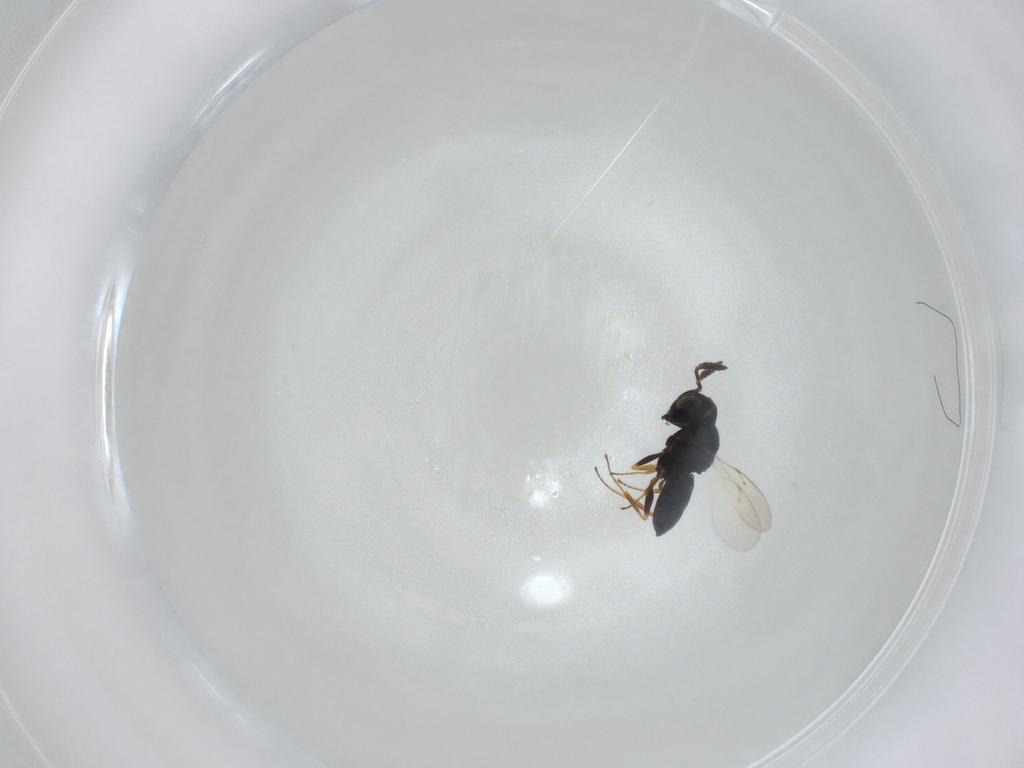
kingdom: Animalia
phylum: Arthropoda
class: Insecta
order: Hymenoptera
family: Scelionidae
